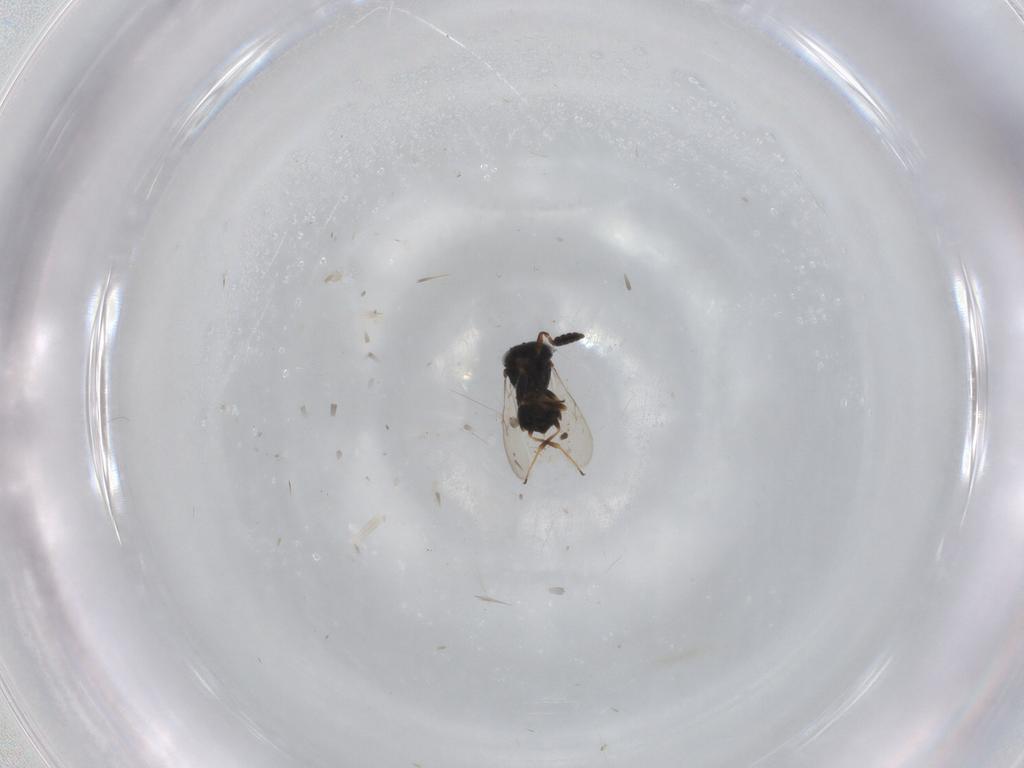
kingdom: Animalia
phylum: Arthropoda
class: Insecta
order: Hymenoptera
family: Scelionidae
